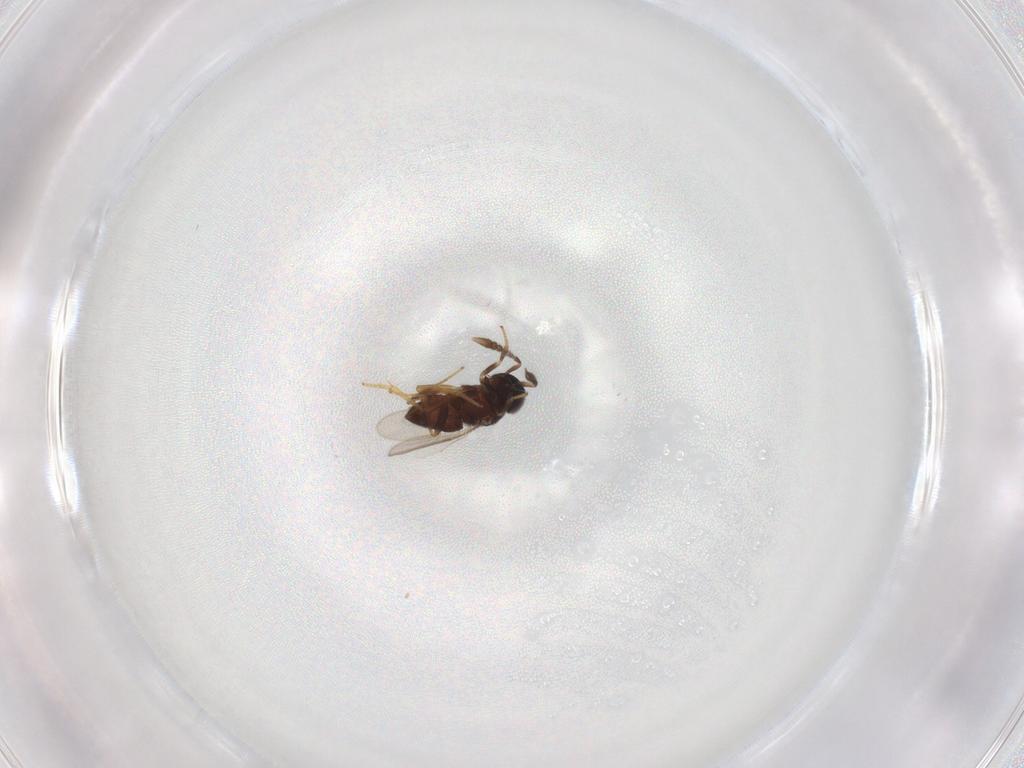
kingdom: Animalia
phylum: Arthropoda
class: Insecta
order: Hymenoptera
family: Encyrtidae
